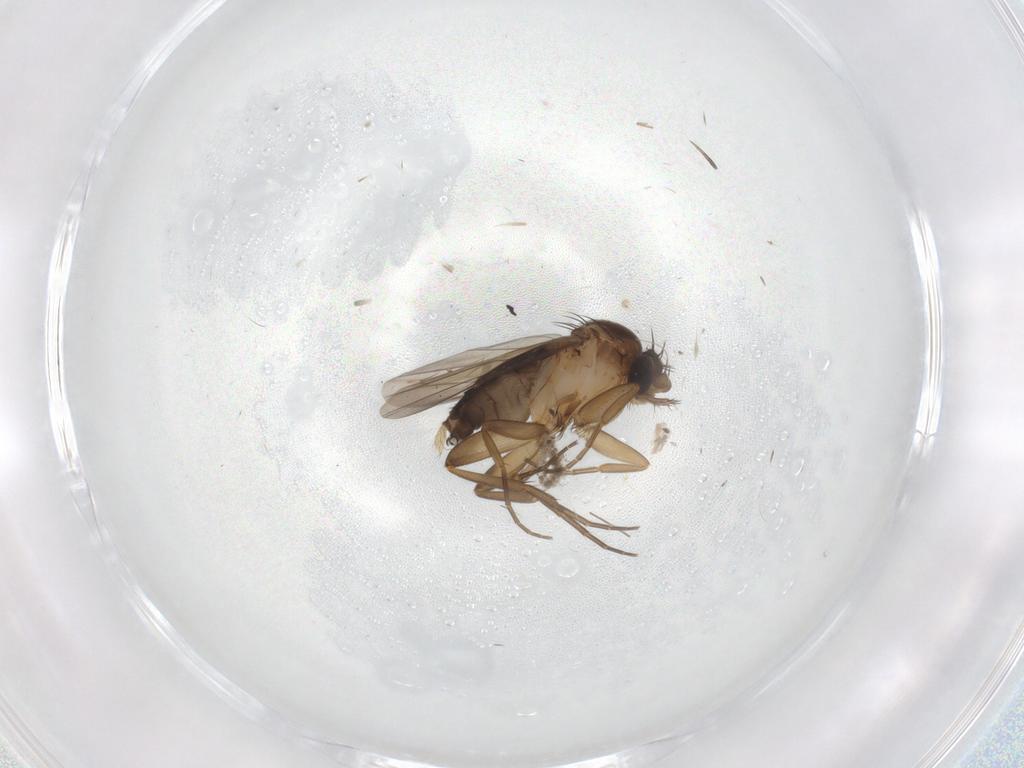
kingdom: Animalia
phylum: Arthropoda
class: Insecta
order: Diptera
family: Phoridae
